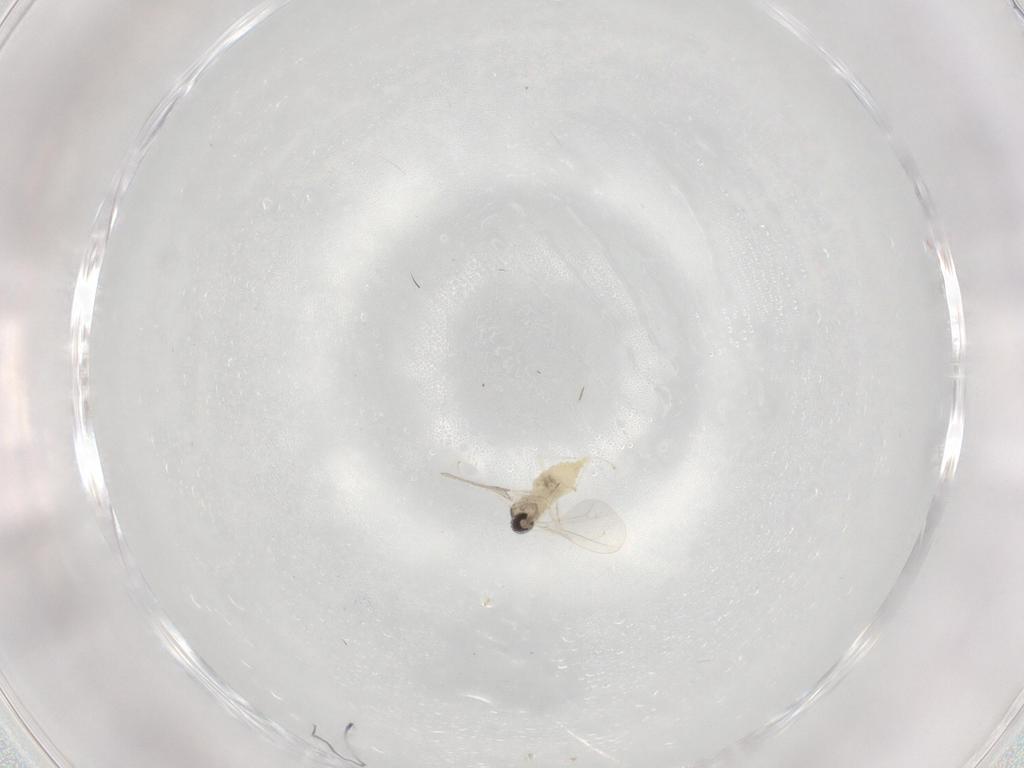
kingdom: Animalia
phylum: Arthropoda
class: Insecta
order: Diptera
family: Cecidomyiidae
